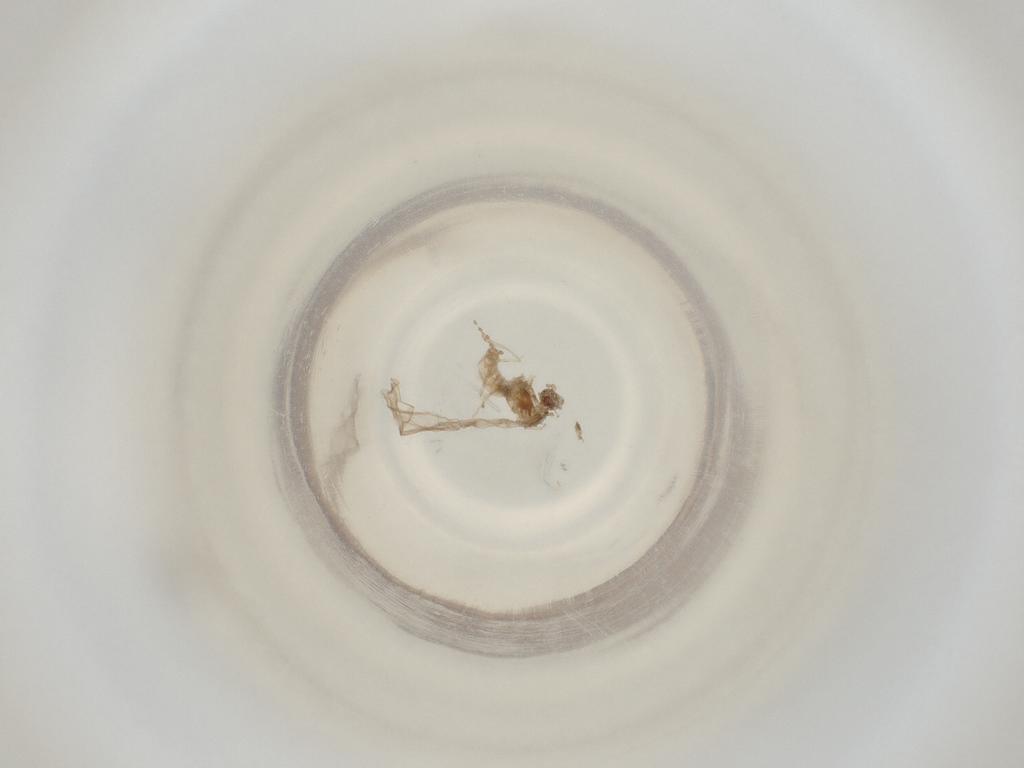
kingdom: Animalia
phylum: Arthropoda
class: Insecta
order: Diptera
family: Cecidomyiidae
